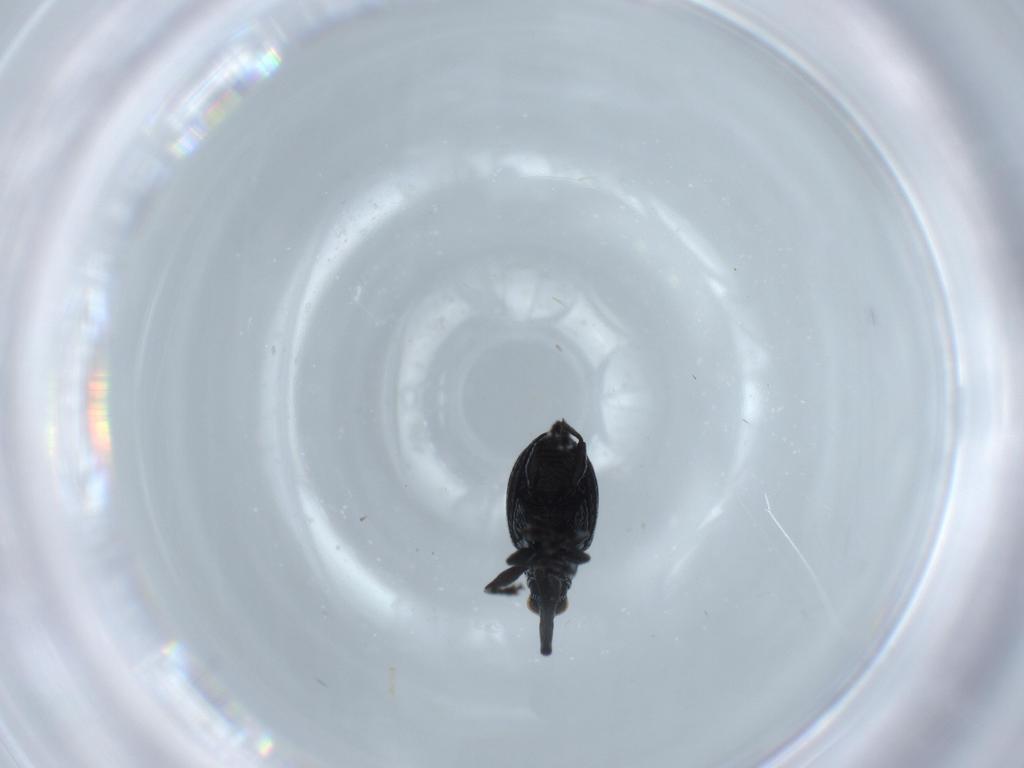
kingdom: Animalia
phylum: Arthropoda
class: Insecta
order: Coleoptera
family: Brentidae
